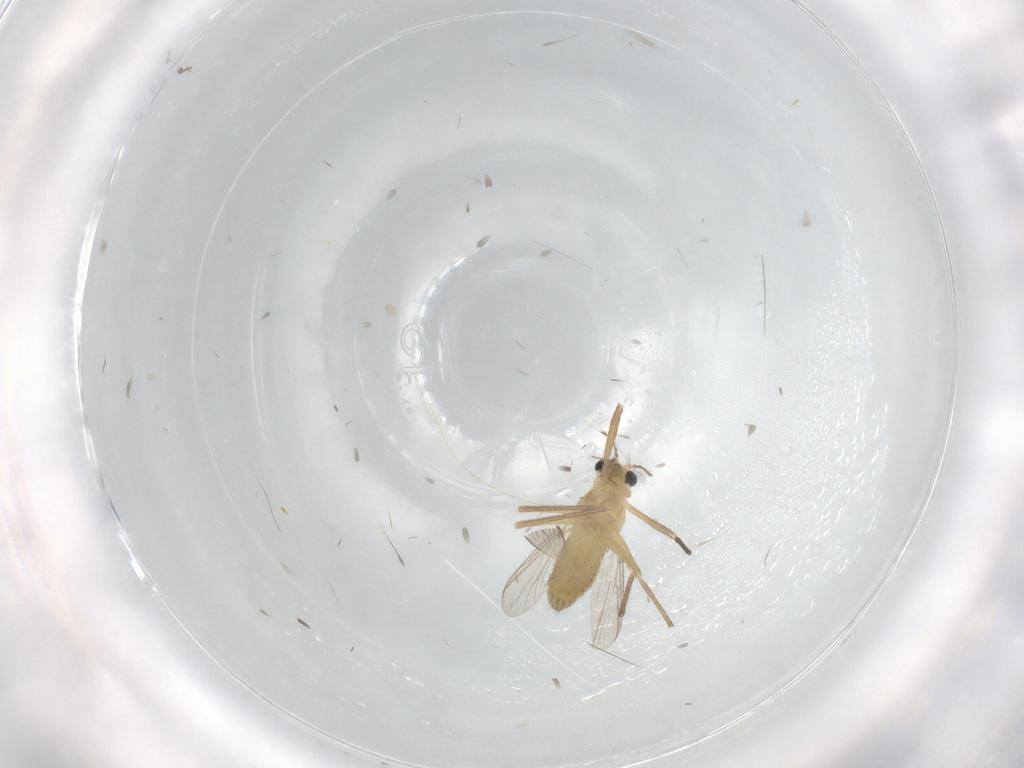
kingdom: Animalia
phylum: Arthropoda
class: Insecta
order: Diptera
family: Chironomidae
